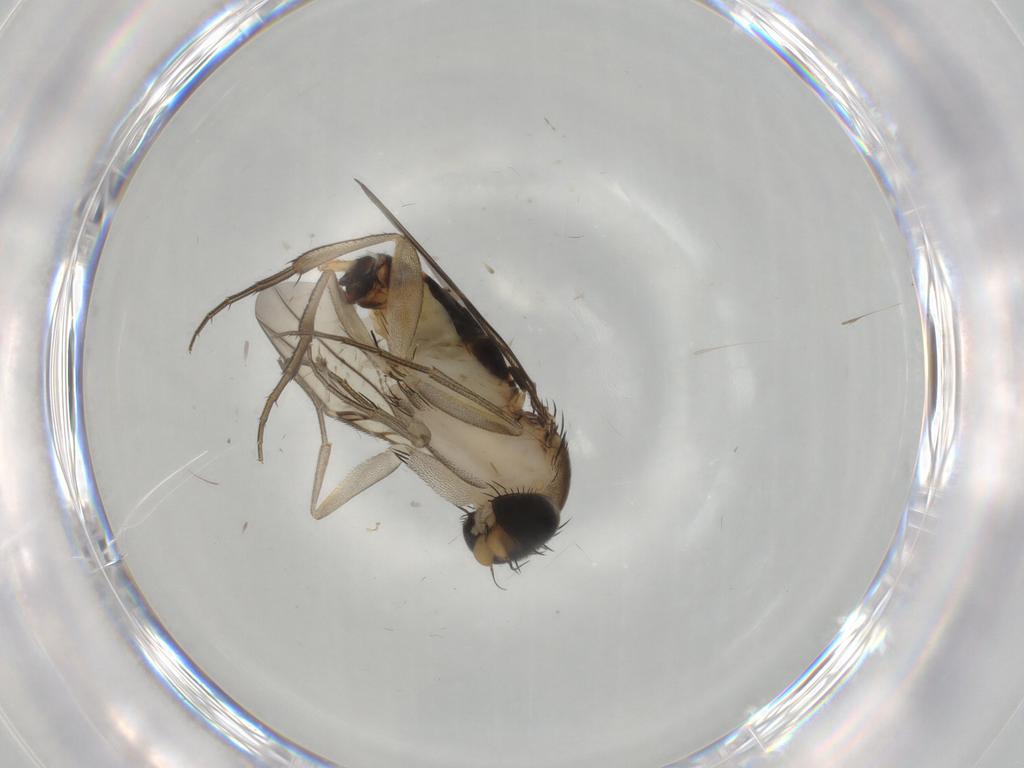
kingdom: Animalia
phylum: Arthropoda
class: Insecta
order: Diptera
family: Phoridae
